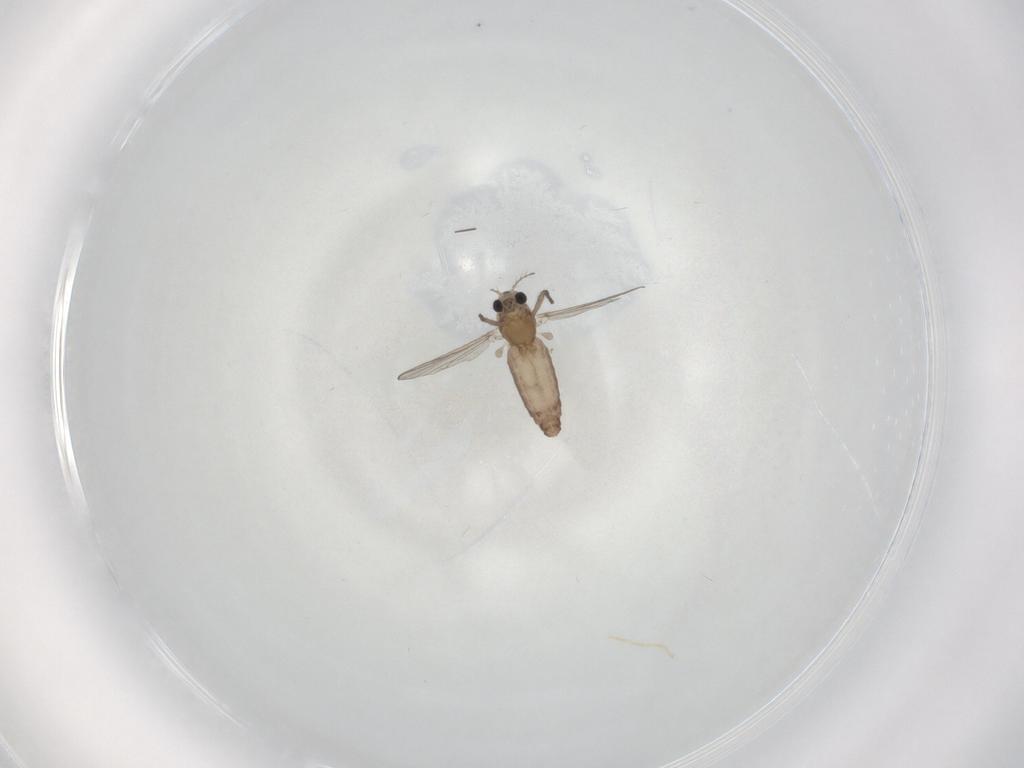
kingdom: Animalia
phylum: Arthropoda
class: Insecta
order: Diptera
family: Chironomidae
